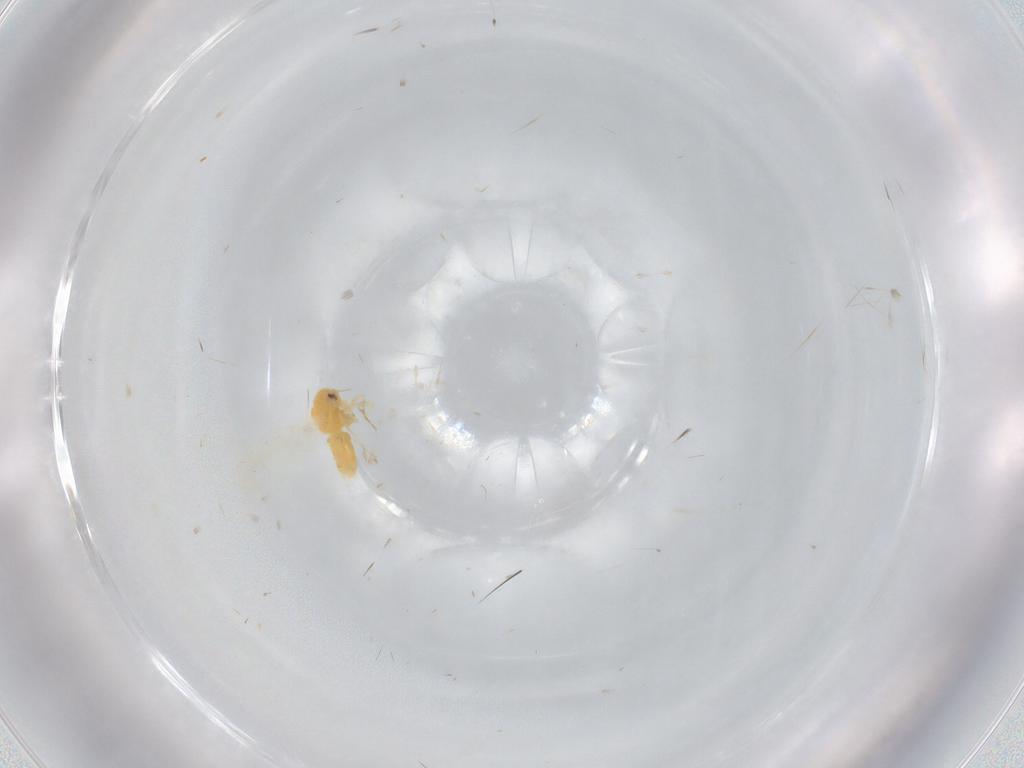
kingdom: Animalia
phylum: Arthropoda
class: Insecta
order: Hemiptera
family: Aleyrodidae
